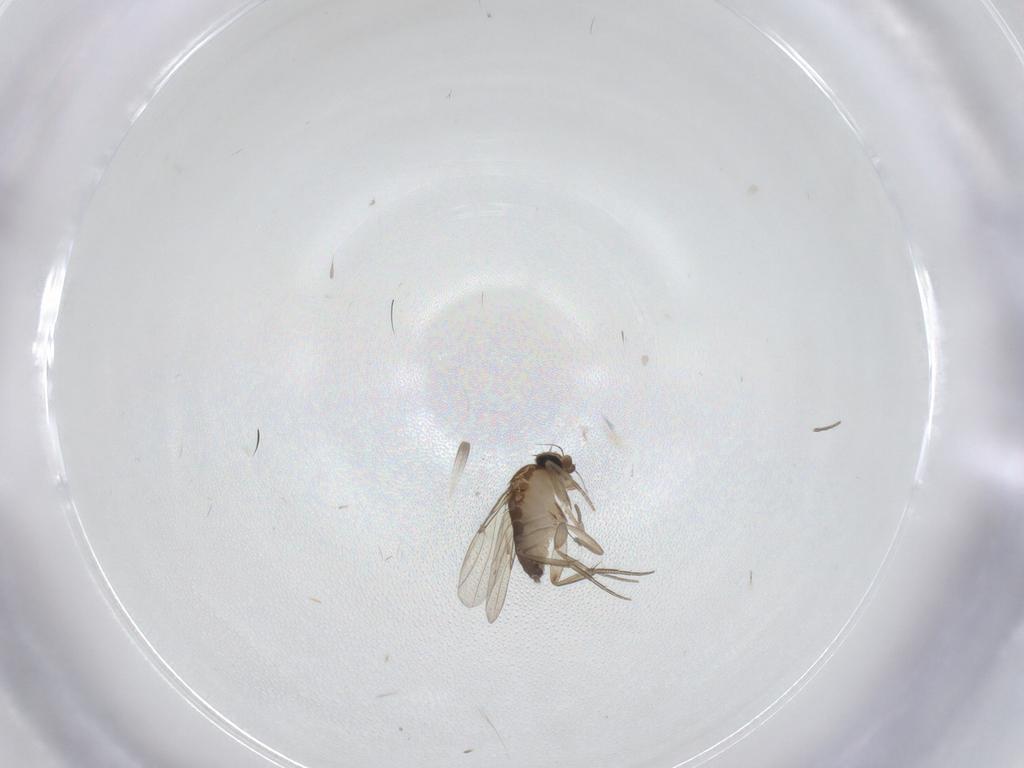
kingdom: Animalia
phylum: Arthropoda
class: Insecta
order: Diptera
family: Phoridae
